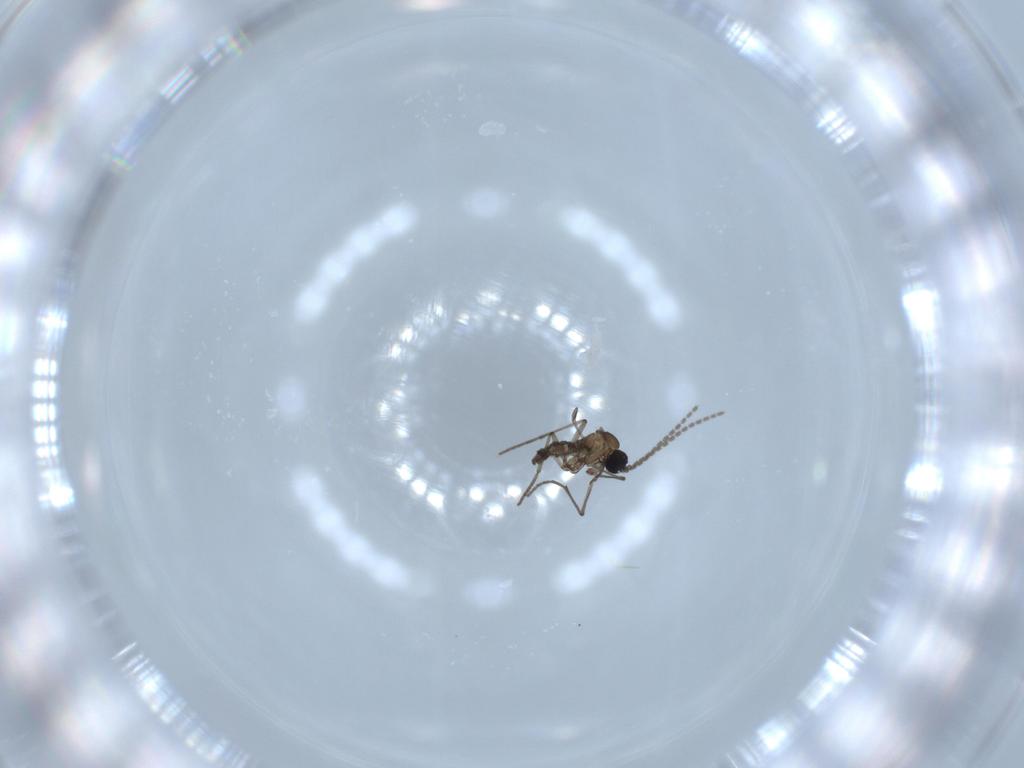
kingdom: Animalia
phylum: Arthropoda
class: Insecta
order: Diptera
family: Sciaridae
